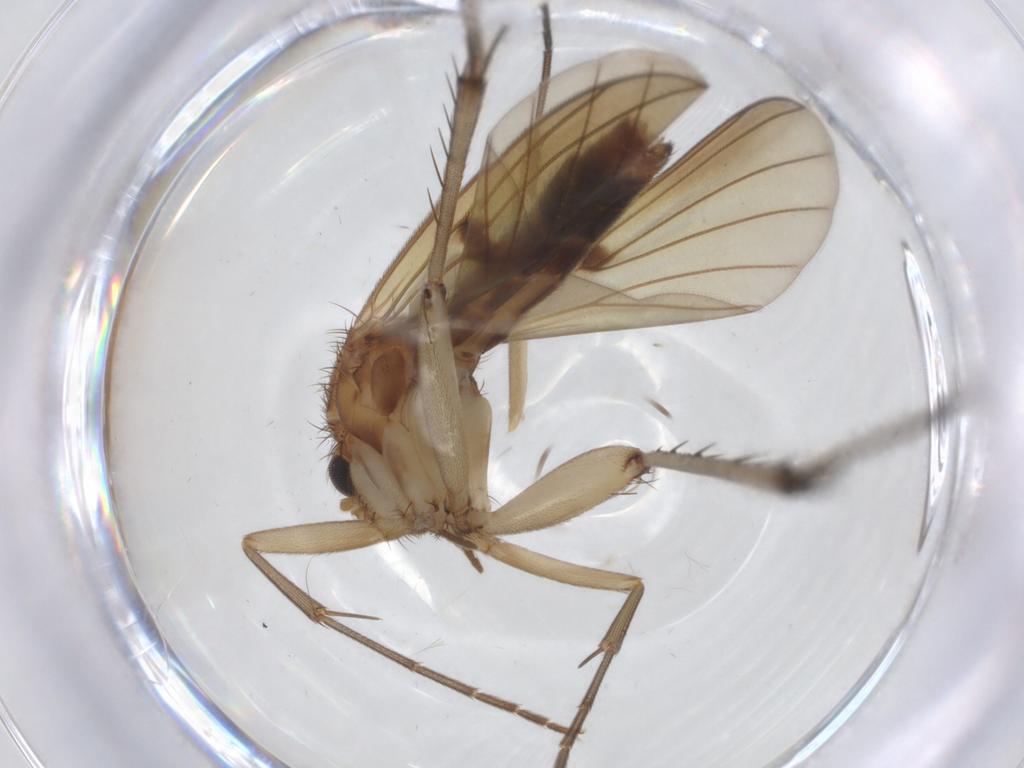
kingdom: Animalia
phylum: Arthropoda
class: Insecta
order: Diptera
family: Mycetophilidae
